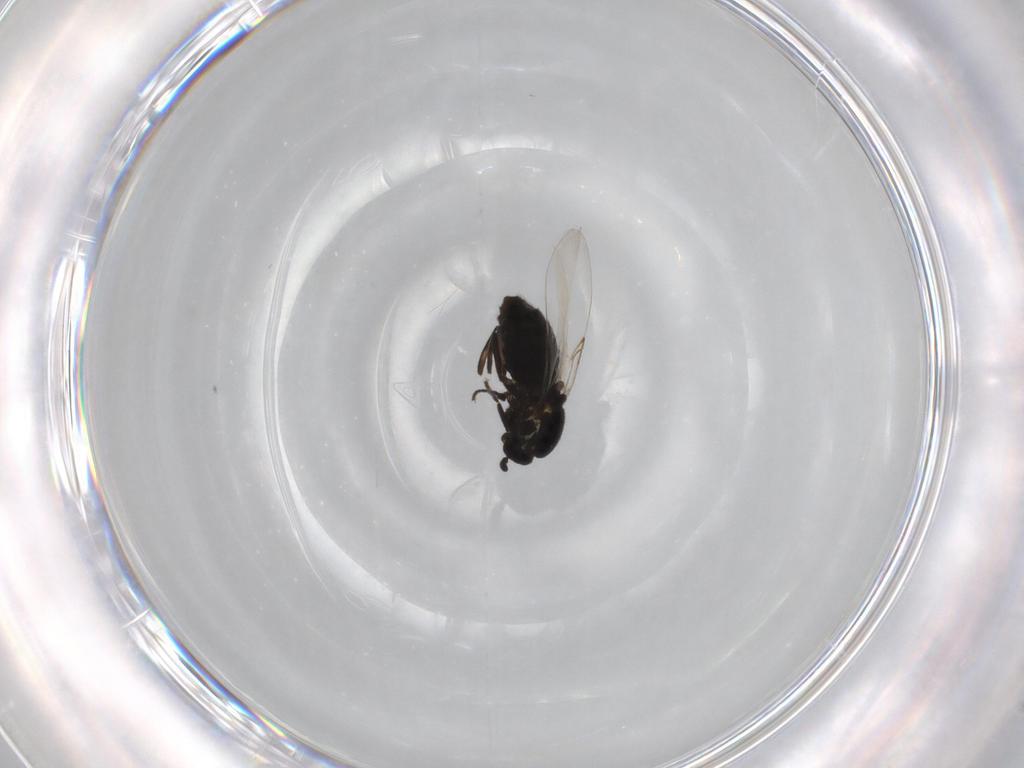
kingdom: Animalia
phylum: Arthropoda
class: Insecta
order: Diptera
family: Scatopsidae
